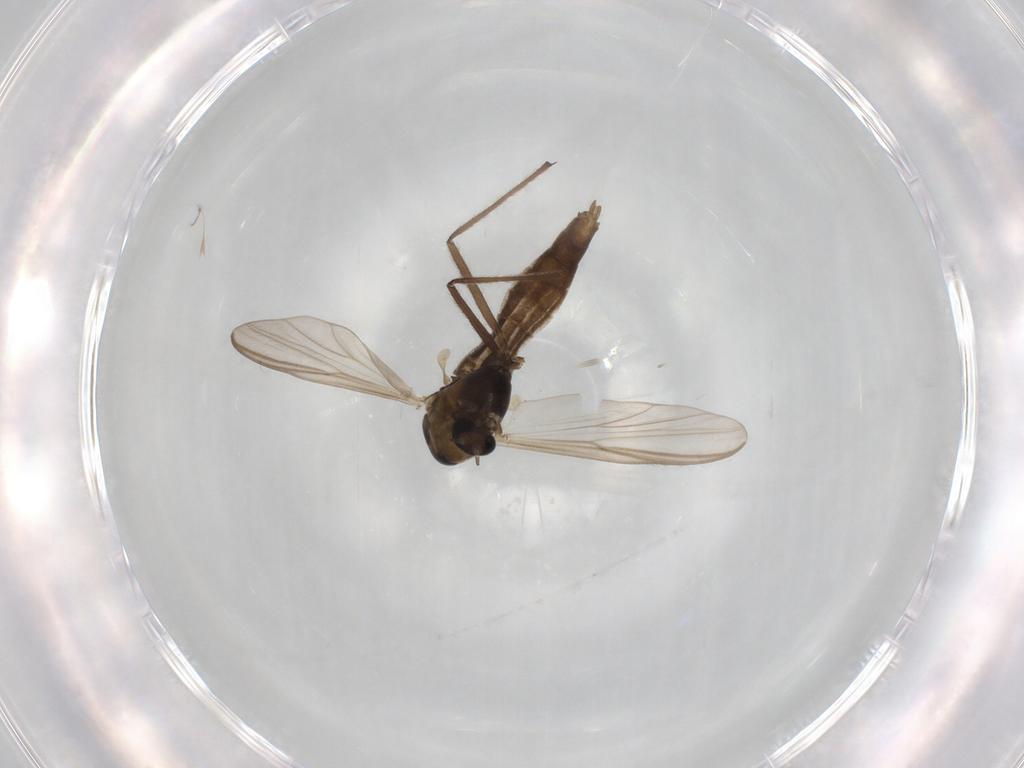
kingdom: Animalia
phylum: Arthropoda
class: Insecta
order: Diptera
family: Chironomidae
